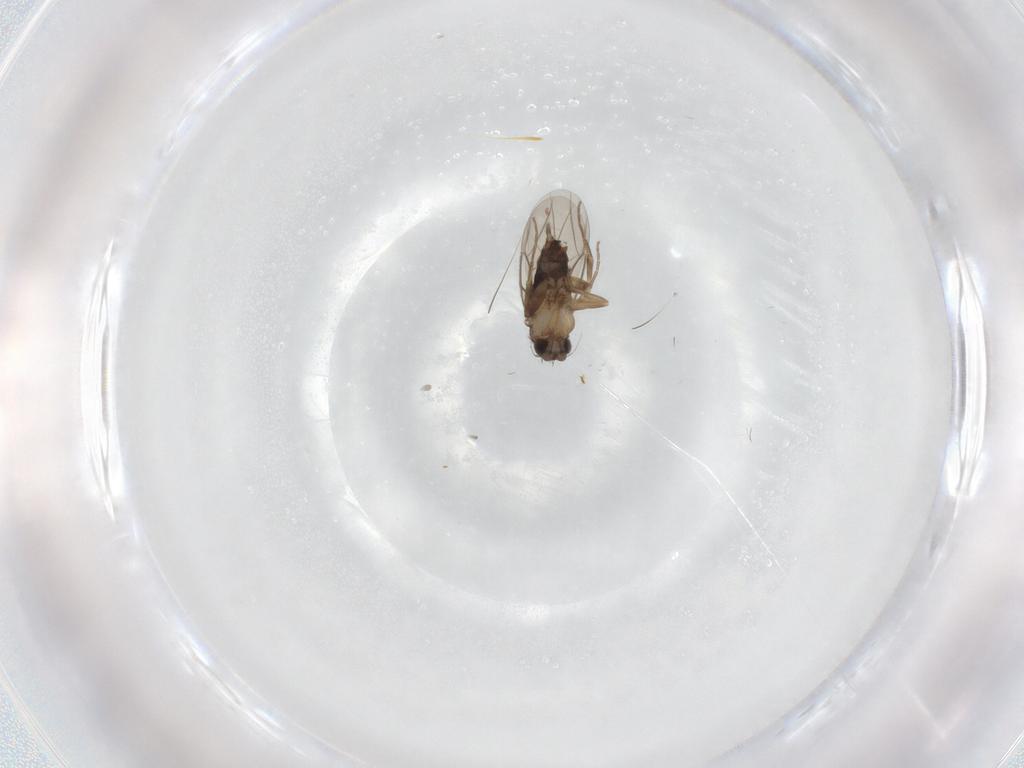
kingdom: Animalia
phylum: Arthropoda
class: Insecta
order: Diptera
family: Phoridae
